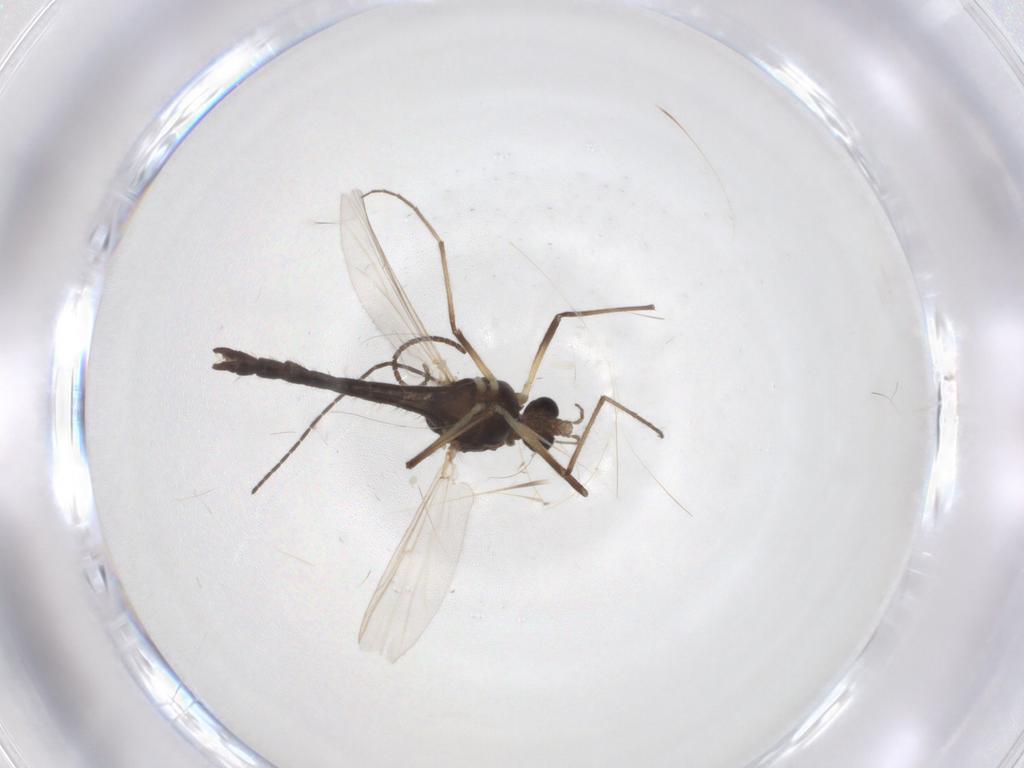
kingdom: Animalia
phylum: Arthropoda
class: Insecta
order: Diptera
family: Chironomidae
